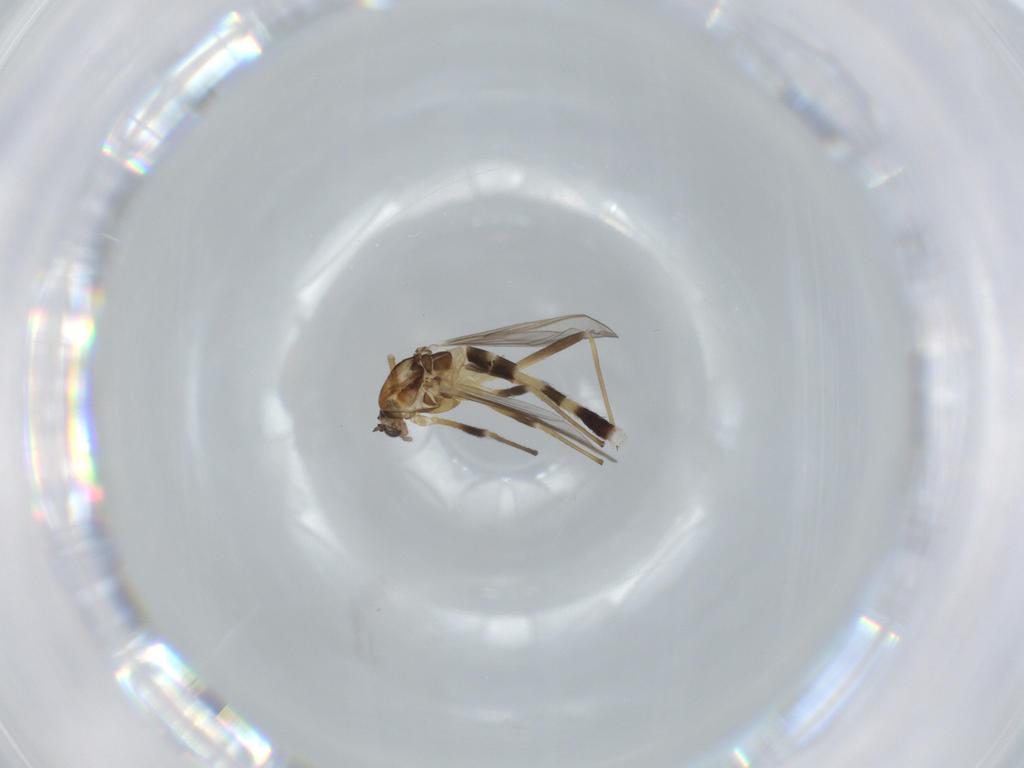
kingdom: Animalia
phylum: Arthropoda
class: Insecta
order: Diptera
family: Chironomidae
